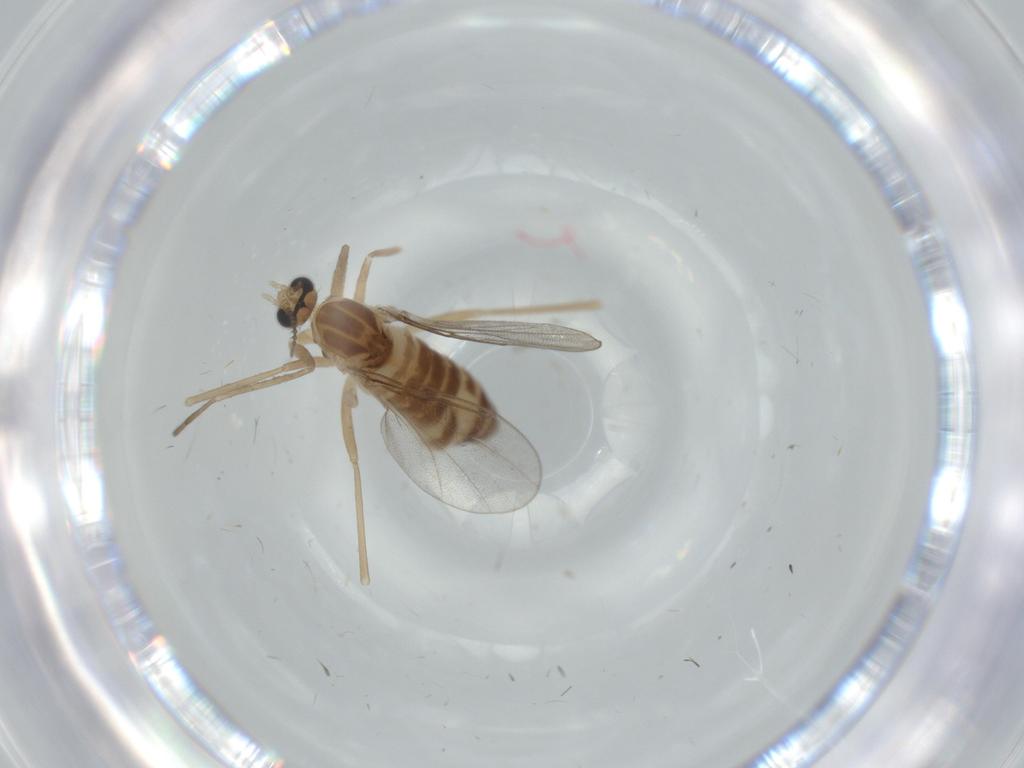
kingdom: Animalia
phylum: Arthropoda
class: Insecta
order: Diptera
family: Cecidomyiidae
